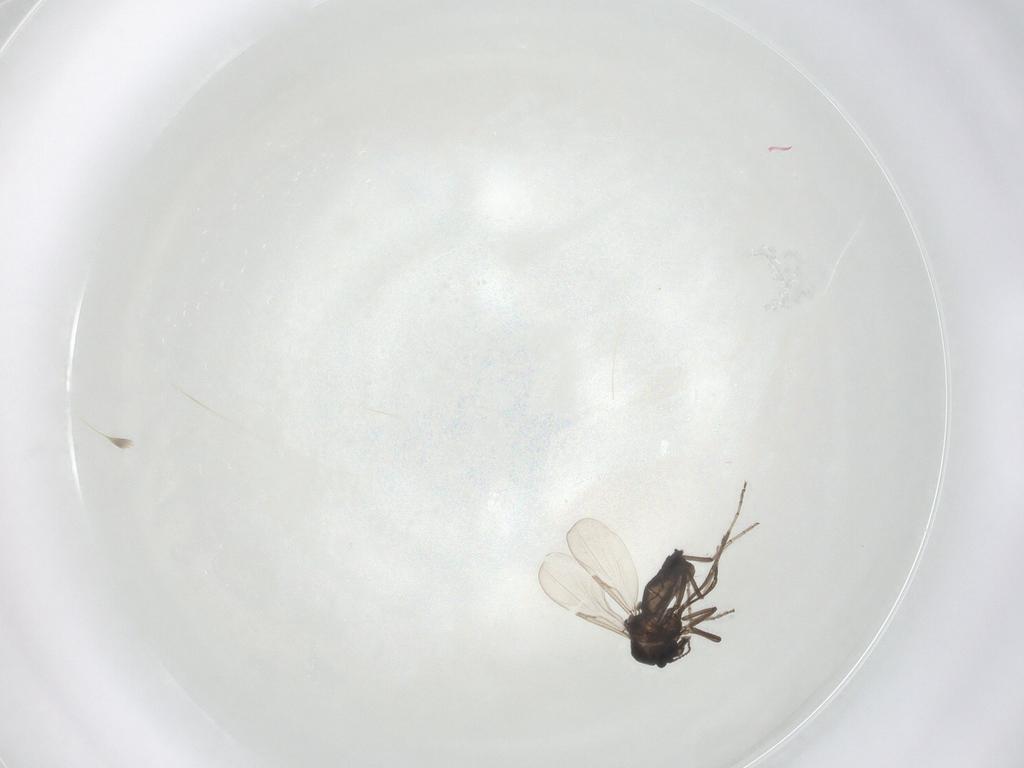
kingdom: Animalia
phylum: Arthropoda
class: Insecta
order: Diptera
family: Ceratopogonidae
